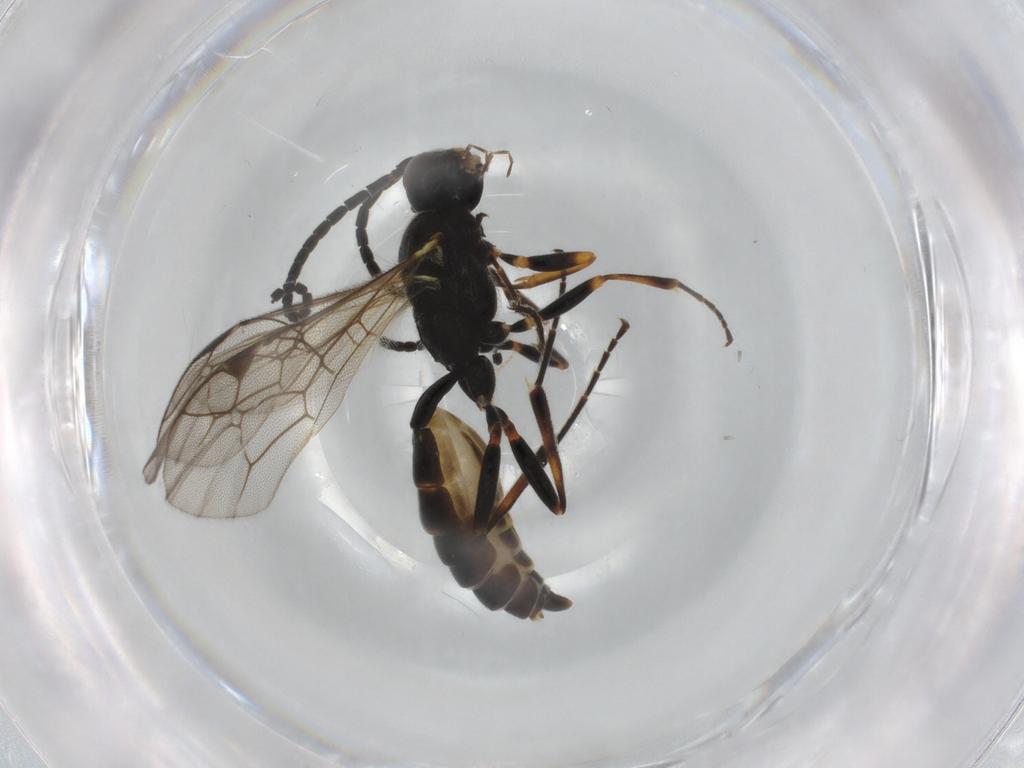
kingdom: Animalia
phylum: Arthropoda
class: Insecta
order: Hymenoptera
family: Ichneumonidae
